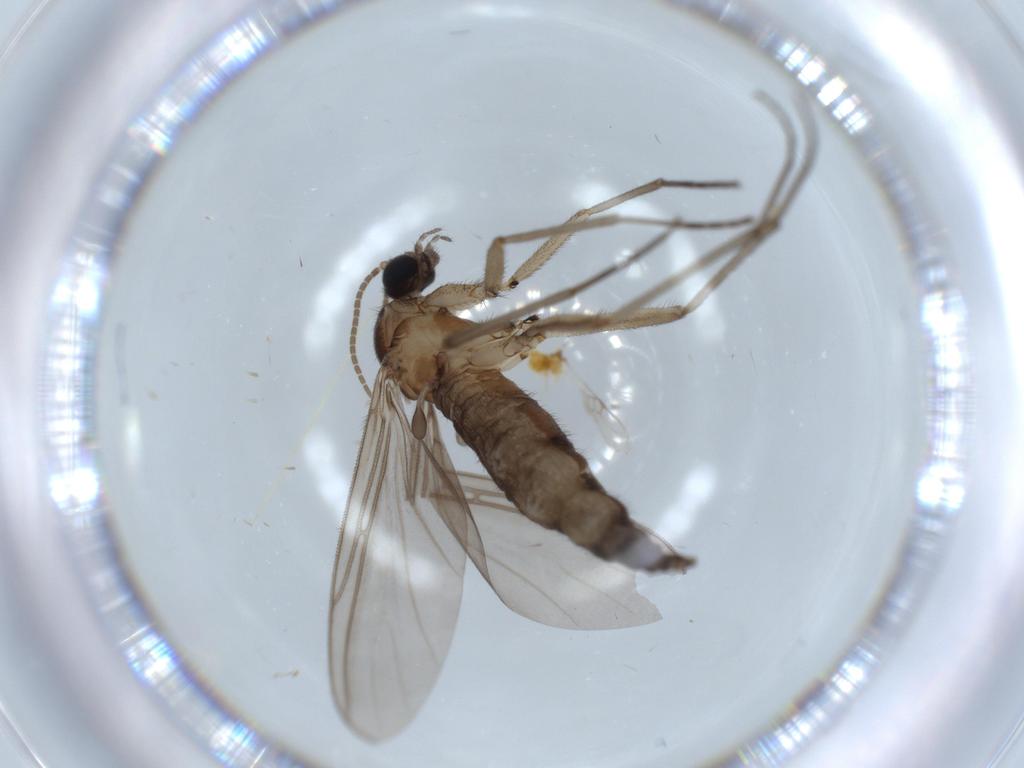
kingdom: Animalia
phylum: Arthropoda
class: Insecta
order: Diptera
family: Sciaridae
